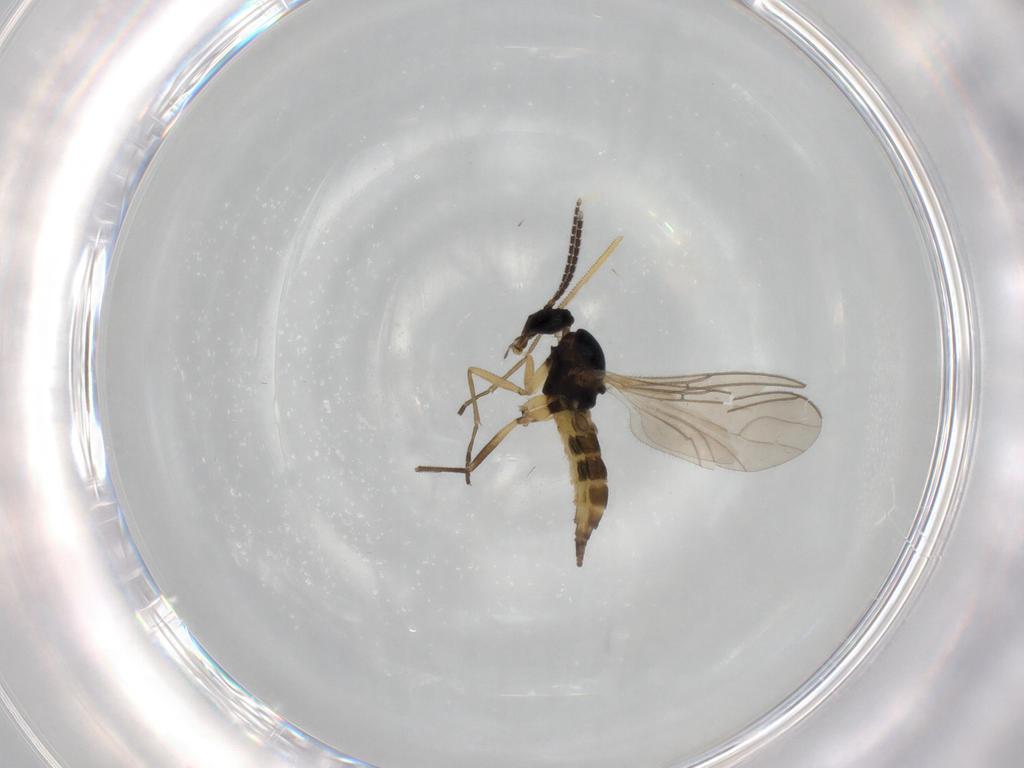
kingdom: Animalia
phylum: Arthropoda
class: Insecta
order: Diptera
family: Sciaridae
